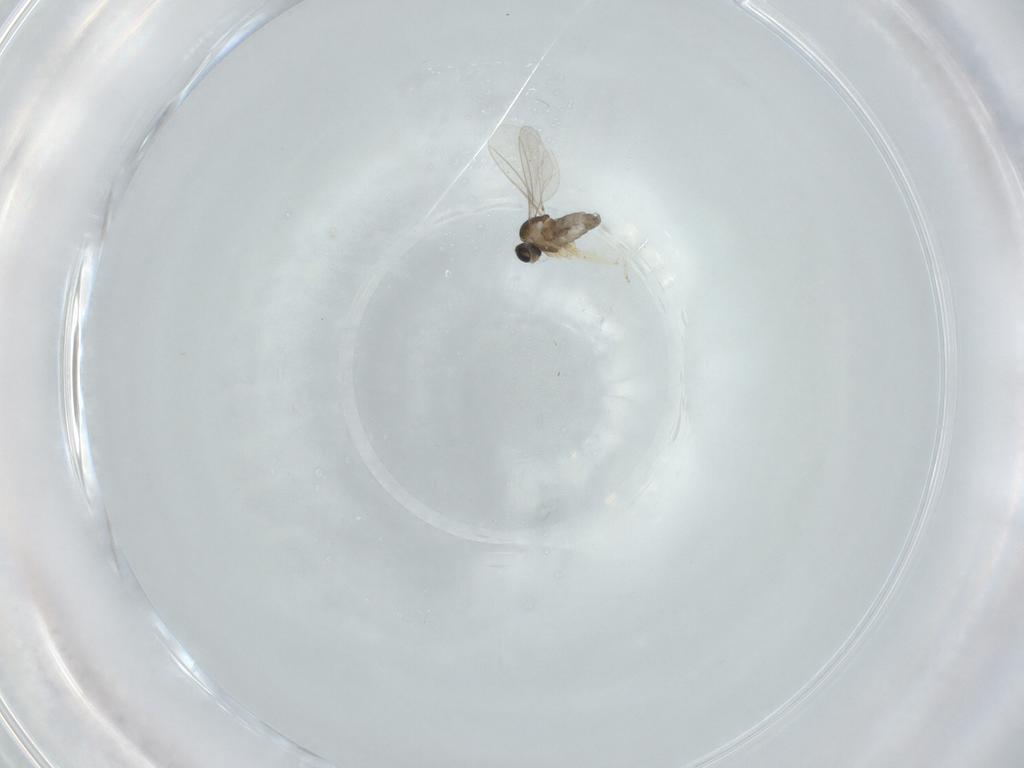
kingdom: Animalia
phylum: Arthropoda
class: Insecta
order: Diptera
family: Cecidomyiidae
